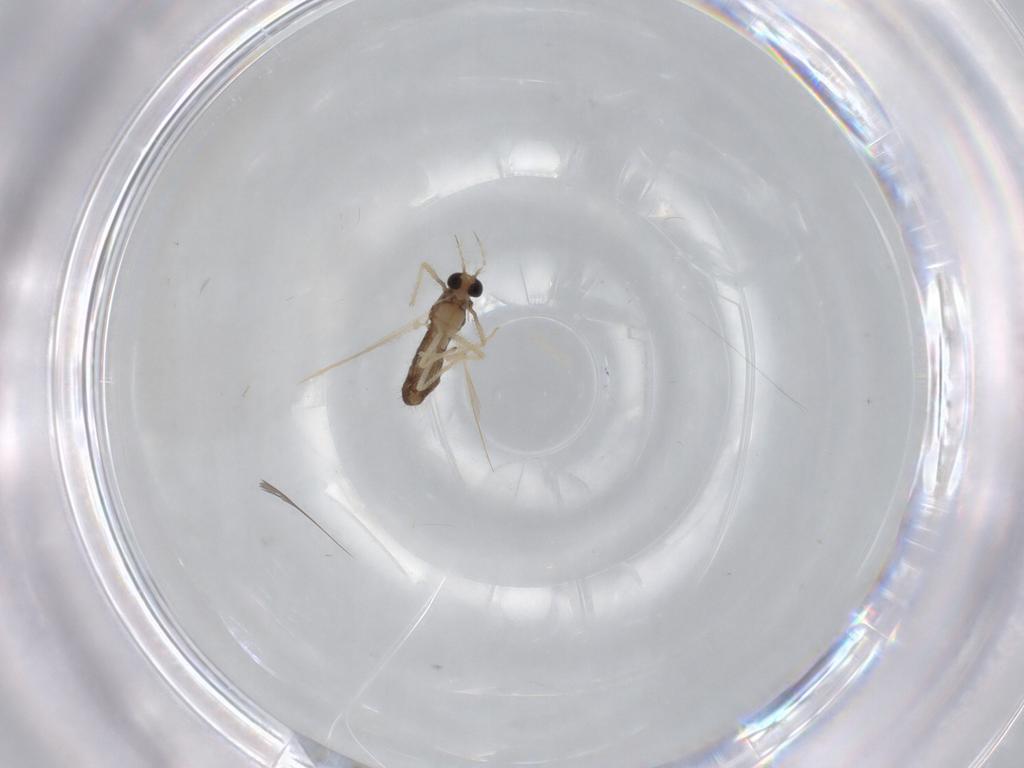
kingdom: Animalia
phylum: Arthropoda
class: Insecta
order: Diptera
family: Chironomidae
